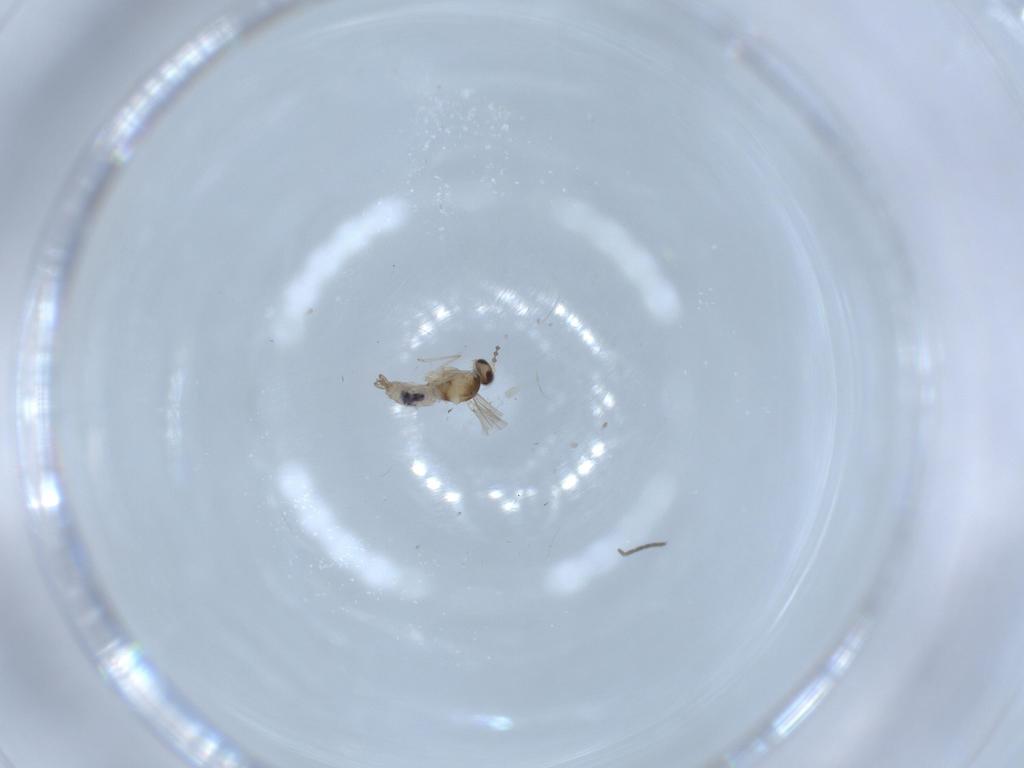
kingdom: Animalia
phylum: Arthropoda
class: Insecta
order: Diptera
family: Cecidomyiidae
